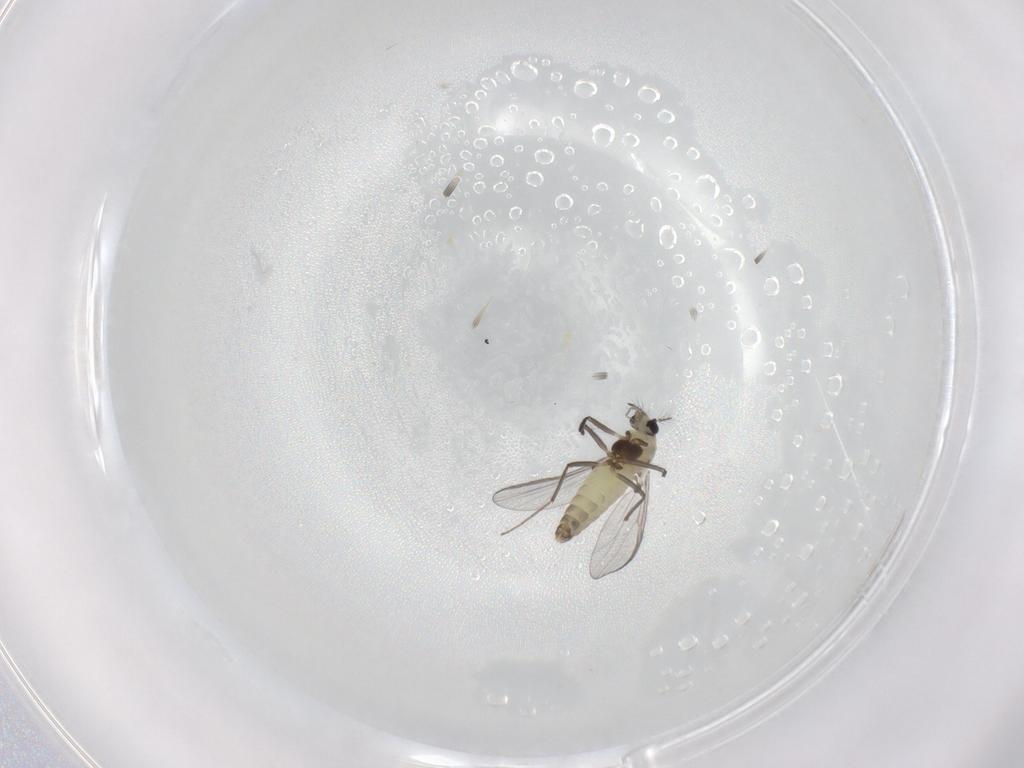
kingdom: Animalia
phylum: Arthropoda
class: Insecta
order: Diptera
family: Chironomidae
